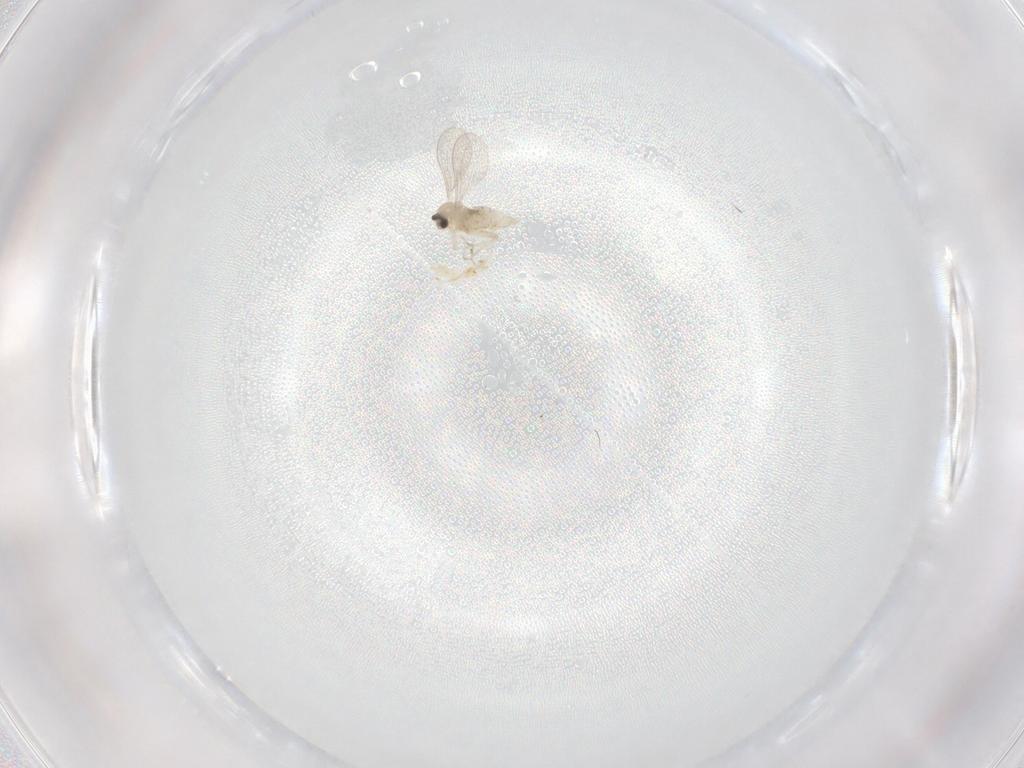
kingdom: Animalia
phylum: Arthropoda
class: Insecta
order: Diptera
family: Cecidomyiidae
